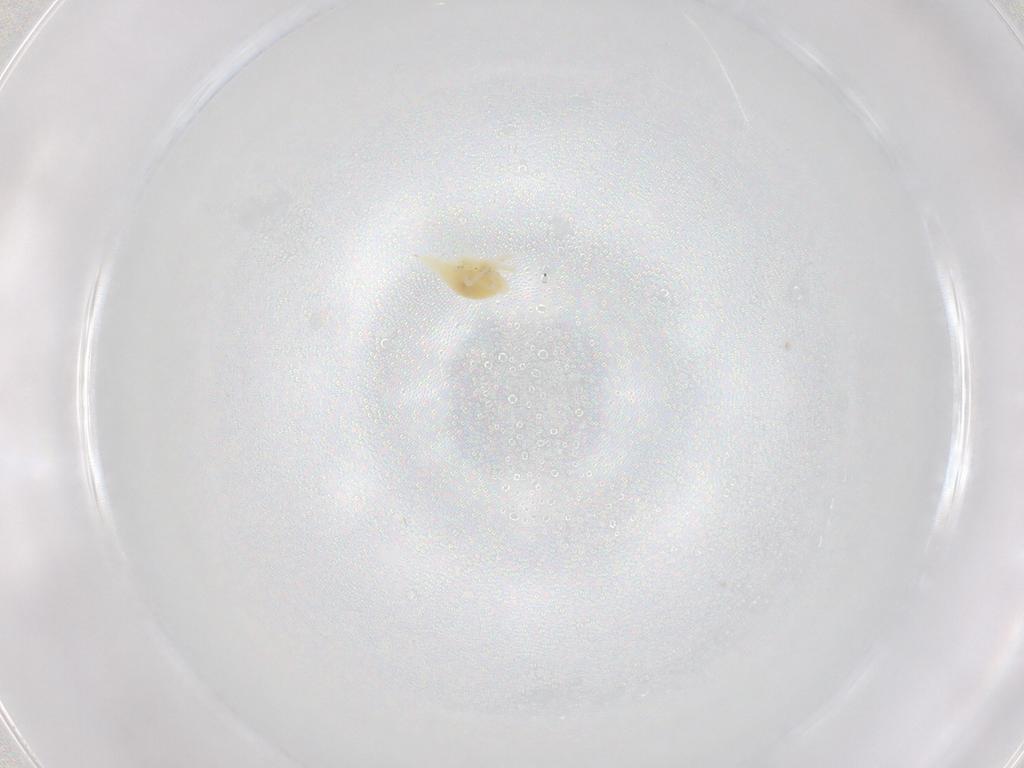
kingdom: Animalia
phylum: Arthropoda
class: Arachnida
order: Trombidiformes
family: Eupodidae
